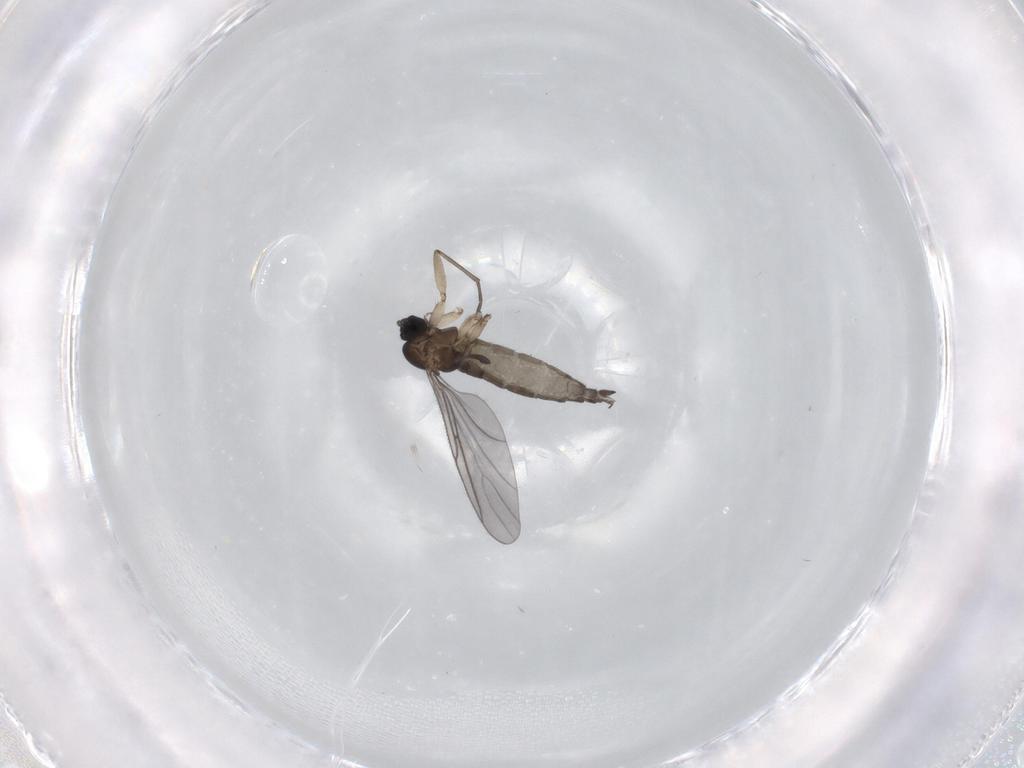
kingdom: Animalia
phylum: Arthropoda
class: Insecta
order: Diptera
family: Sciaridae
